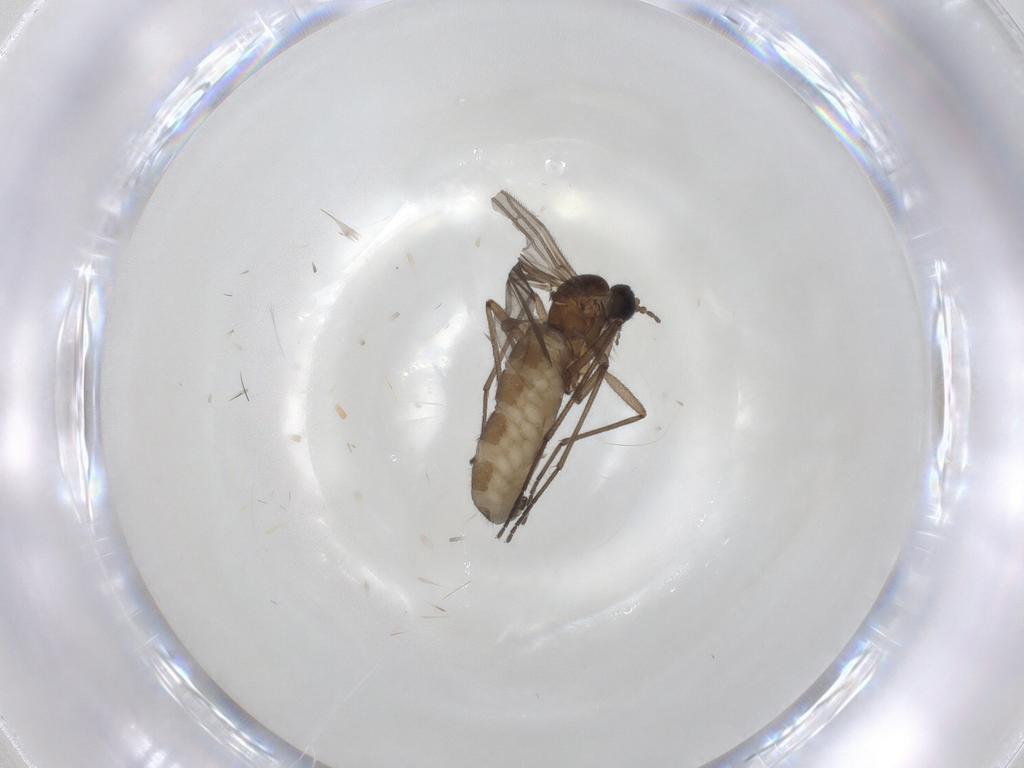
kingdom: Animalia
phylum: Arthropoda
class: Insecta
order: Diptera
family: Sciaridae
